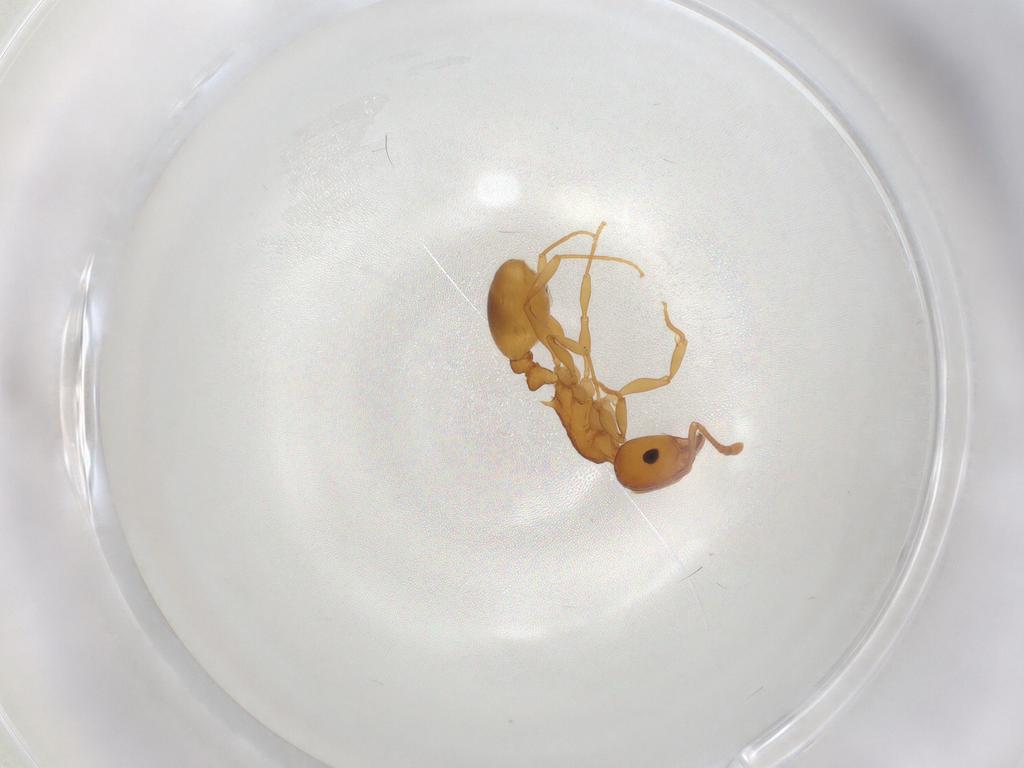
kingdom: Animalia
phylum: Arthropoda
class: Insecta
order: Hymenoptera
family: Formicidae
